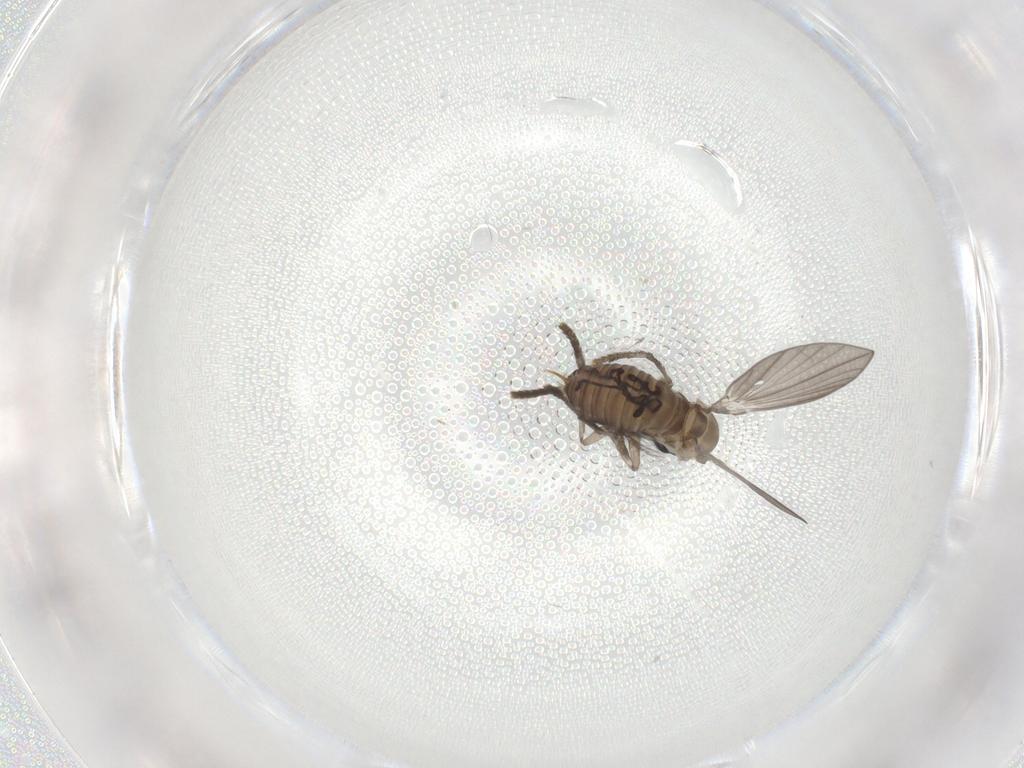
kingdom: Animalia
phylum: Arthropoda
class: Insecta
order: Diptera
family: Psychodidae
